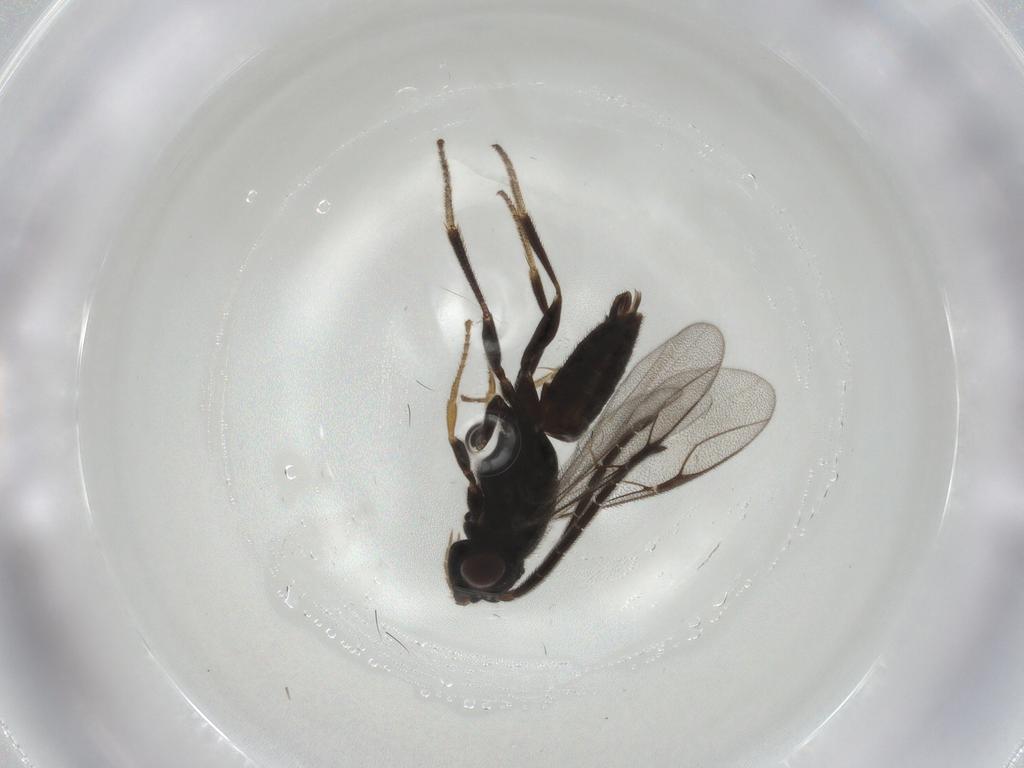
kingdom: Animalia
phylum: Arthropoda
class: Insecta
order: Hymenoptera
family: Dryinidae
